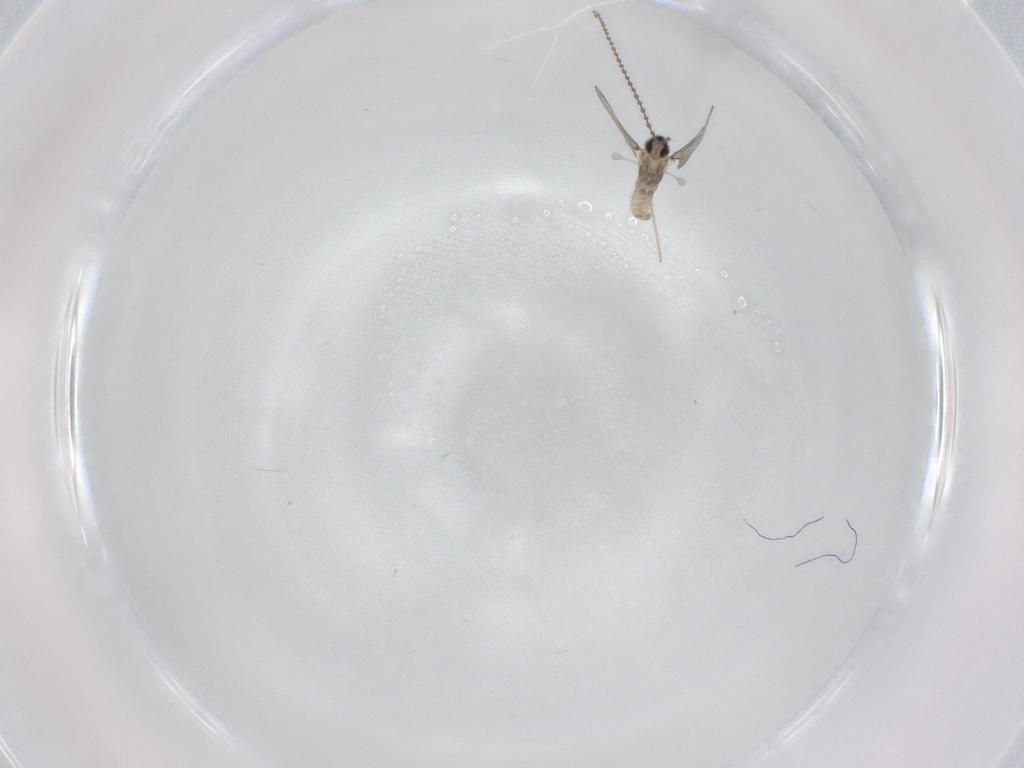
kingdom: Animalia
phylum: Arthropoda
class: Insecta
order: Diptera
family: Cecidomyiidae
